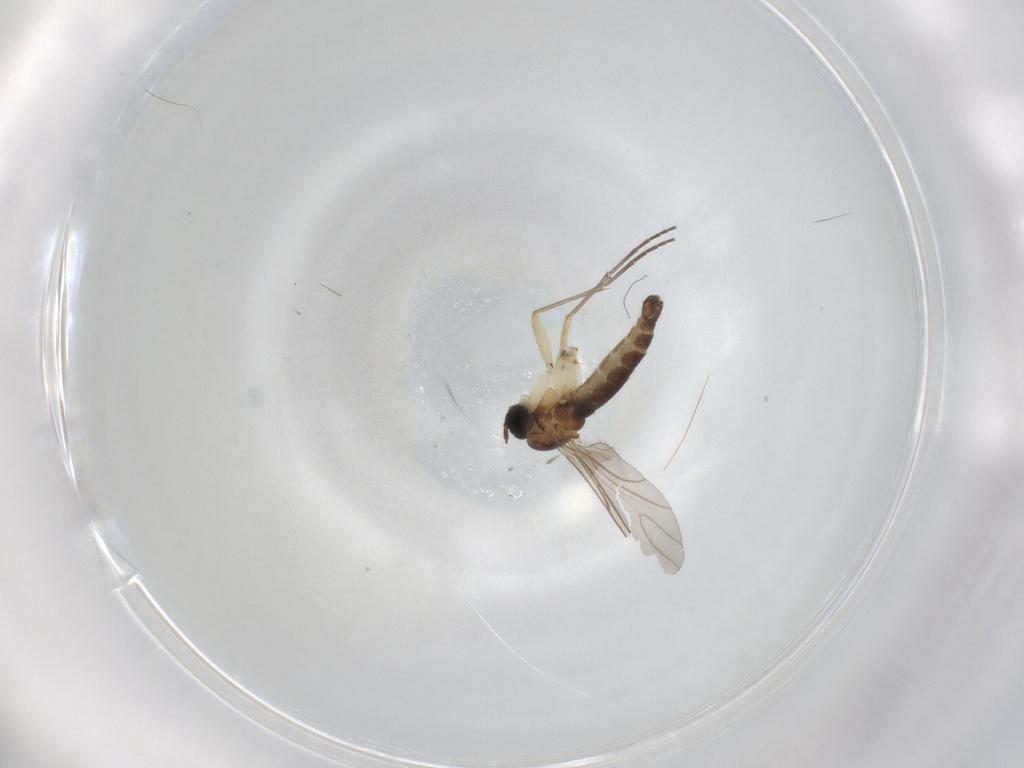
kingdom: Animalia
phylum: Arthropoda
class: Insecta
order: Diptera
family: Sciaridae
